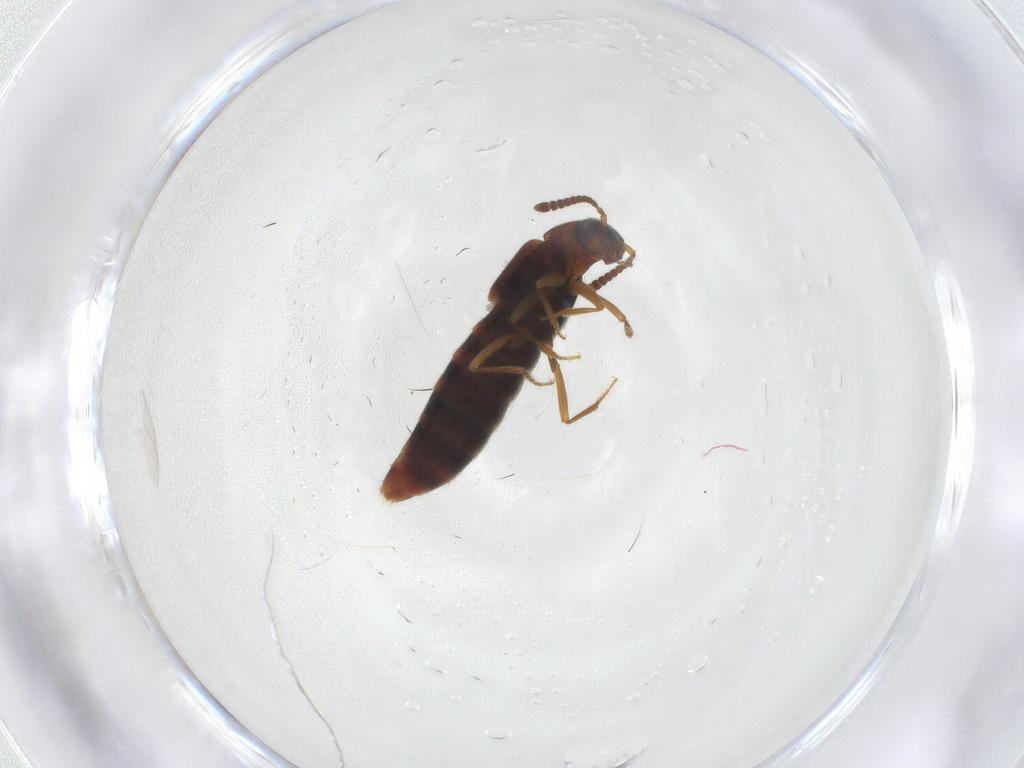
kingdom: Animalia
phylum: Arthropoda
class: Insecta
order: Coleoptera
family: Staphylinidae
